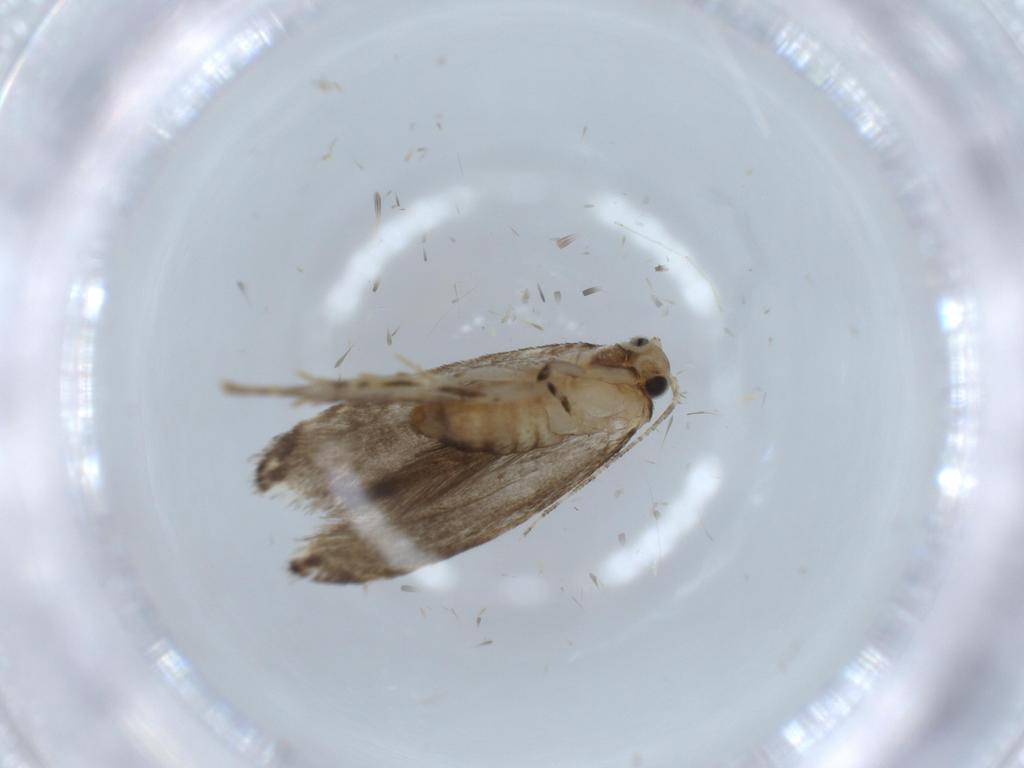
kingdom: Animalia
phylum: Arthropoda
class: Insecta
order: Lepidoptera
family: Tineidae
